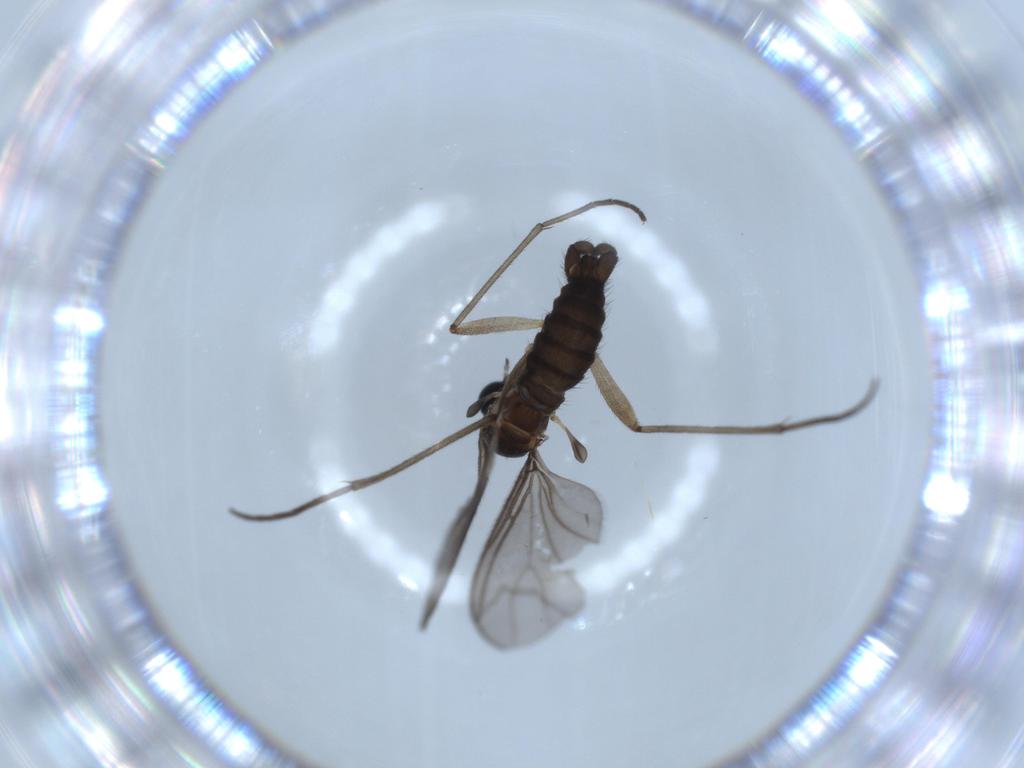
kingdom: Animalia
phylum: Arthropoda
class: Insecta
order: Diptera
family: Sciaridae
